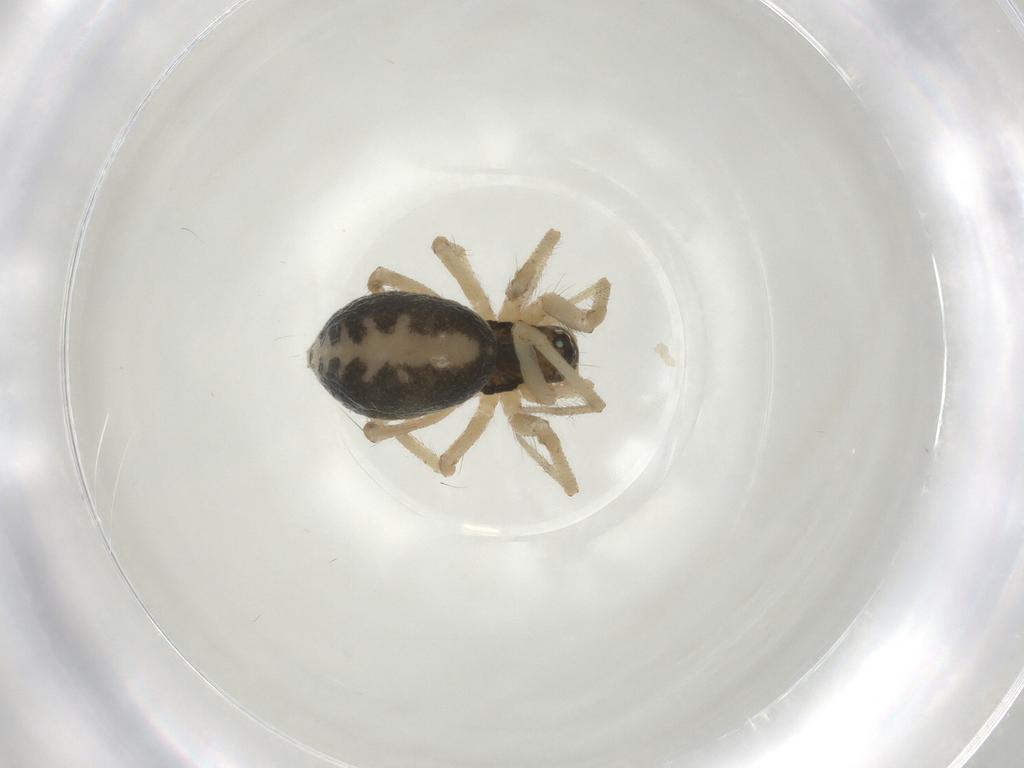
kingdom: Animalia
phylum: Arthropoda
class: Arachnida
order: Araneae
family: Linyphiidae
